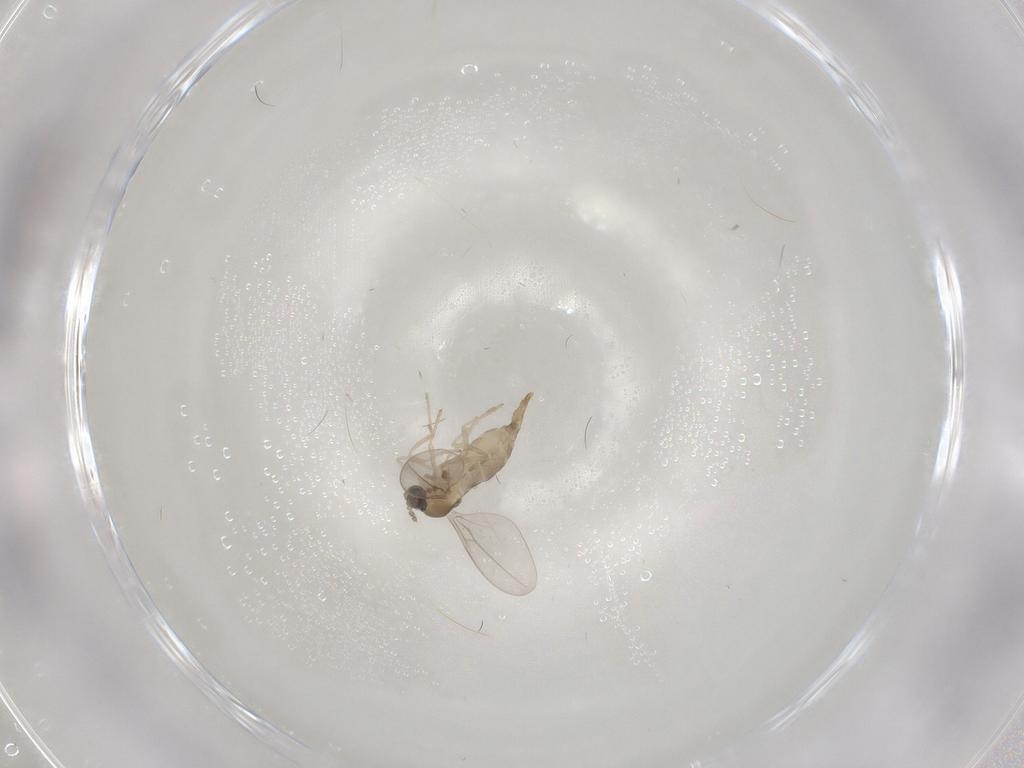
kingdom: Animalia
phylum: Arthropoda
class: Insecta
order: Diptera
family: Cecidomyiidae
